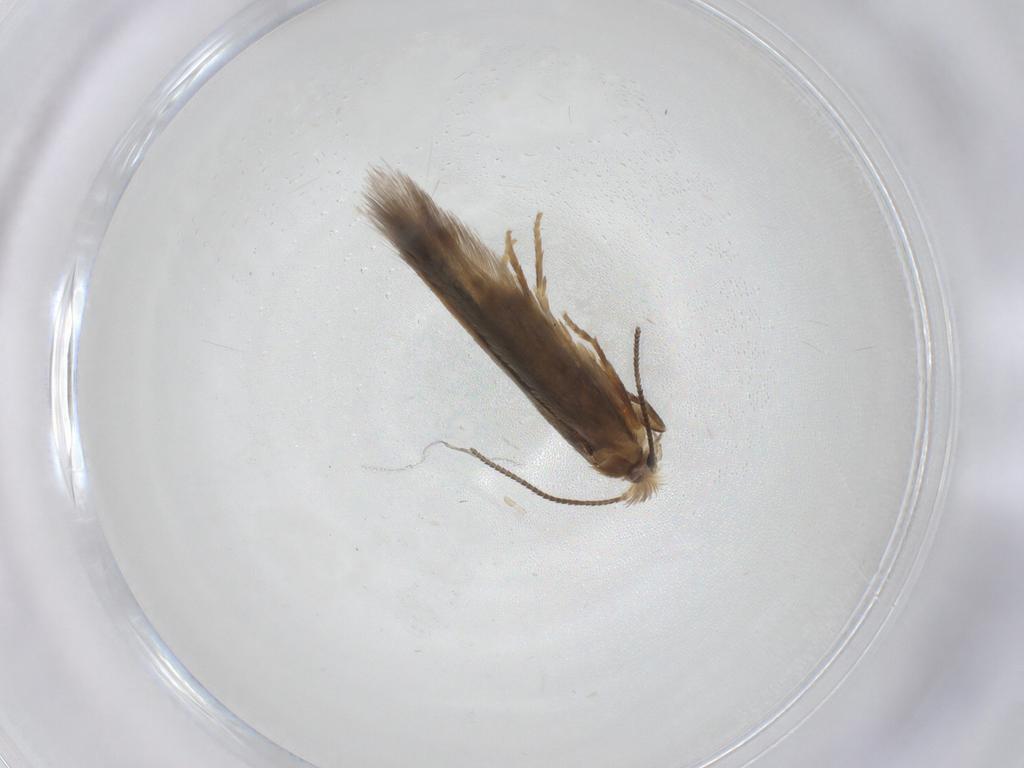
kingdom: Animalia
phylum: Arthropoda
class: Insecta
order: Lepidoptera
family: Nepticulidae
